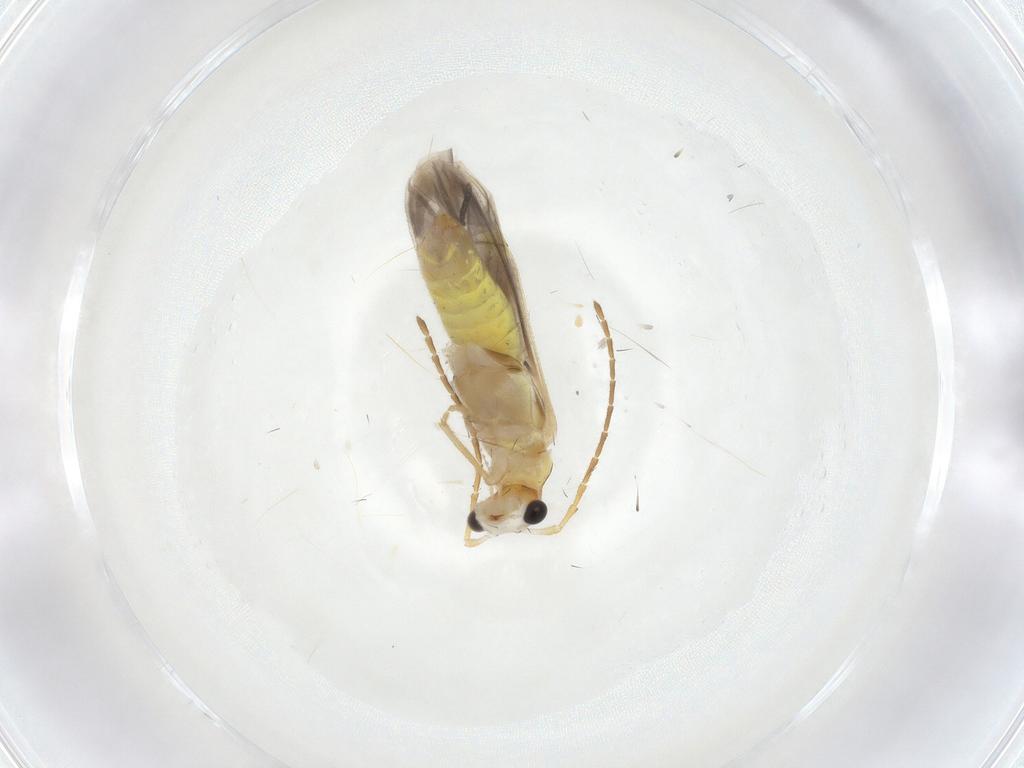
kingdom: Animalia
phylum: Arthropoda
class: Insecta
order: Coleoptera
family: Cantharidae
